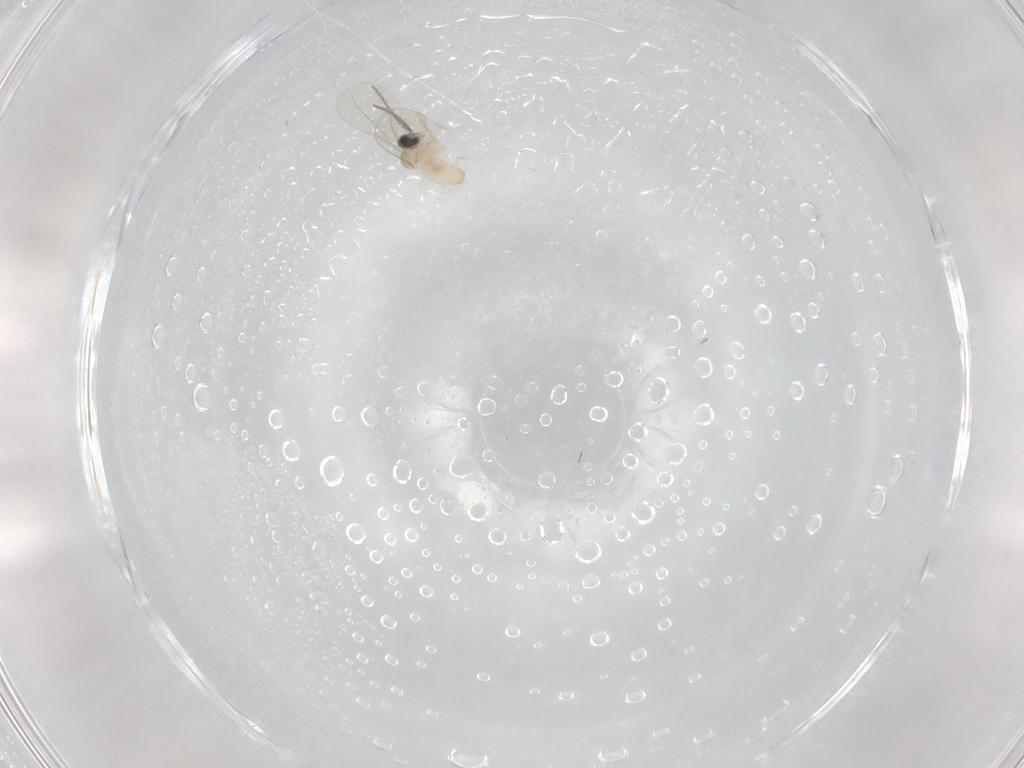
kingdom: Animalia
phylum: Arthropoda
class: Insecta
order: Diptera
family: Cecidomyiidae
